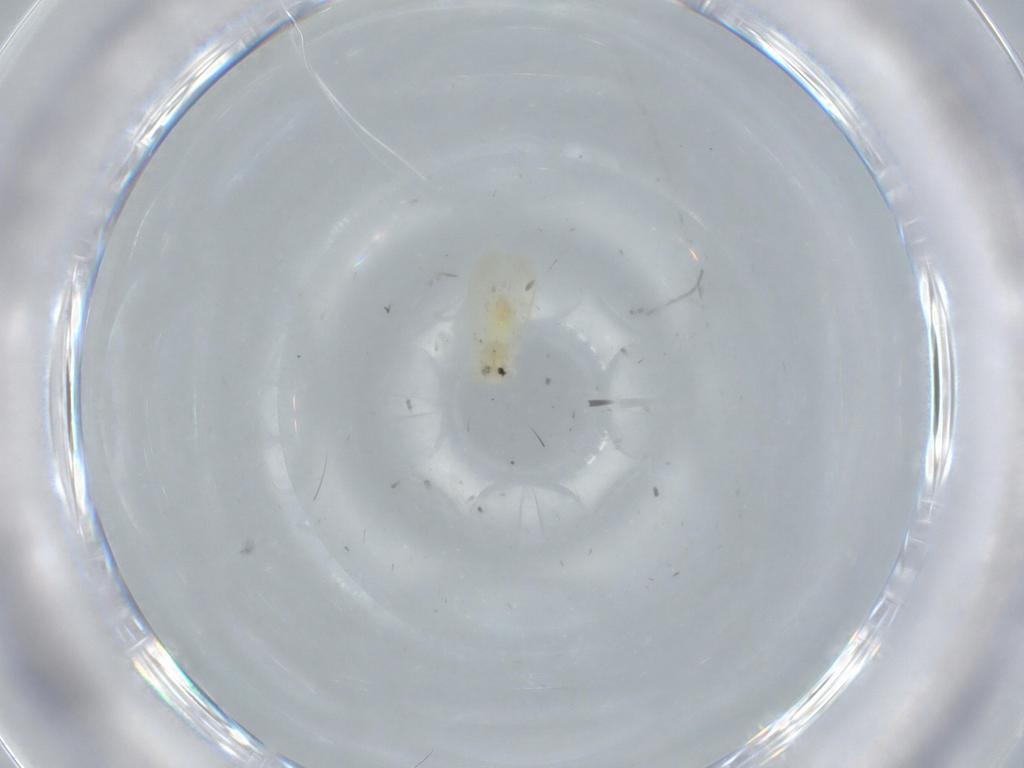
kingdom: Animalia
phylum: Arthropoda
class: Insecta
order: Hemiptera
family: Aleyrodidae
